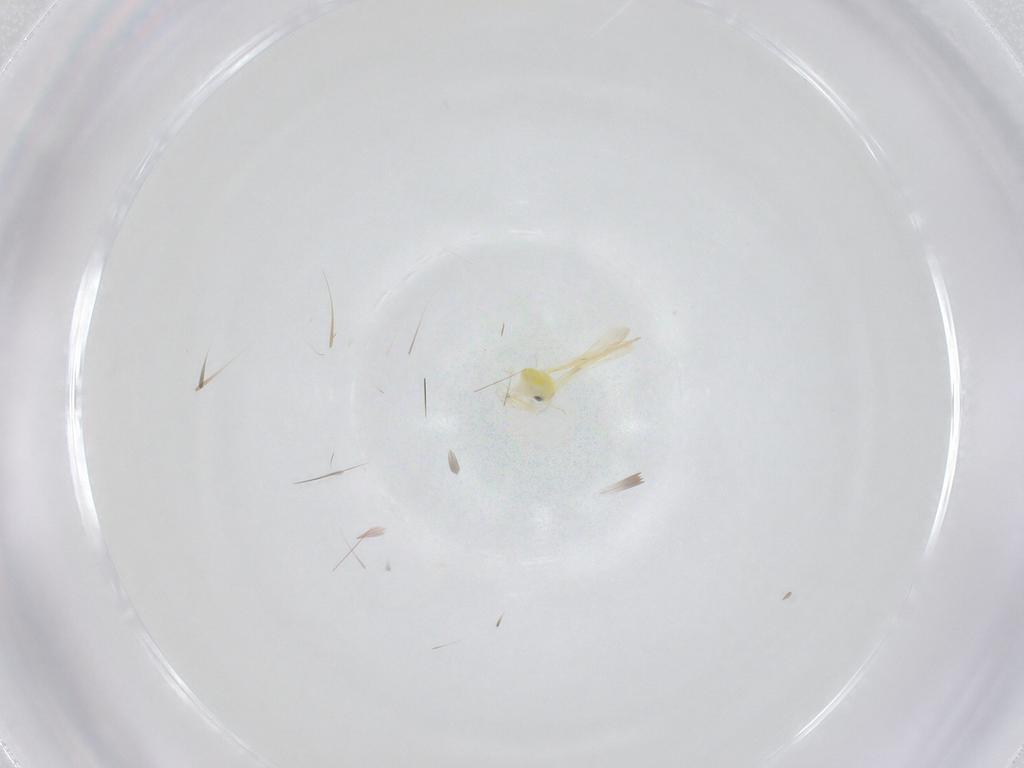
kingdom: Animalia
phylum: Arthropoda
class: Insecta
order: Hemiptera
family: Aleyrodidae
